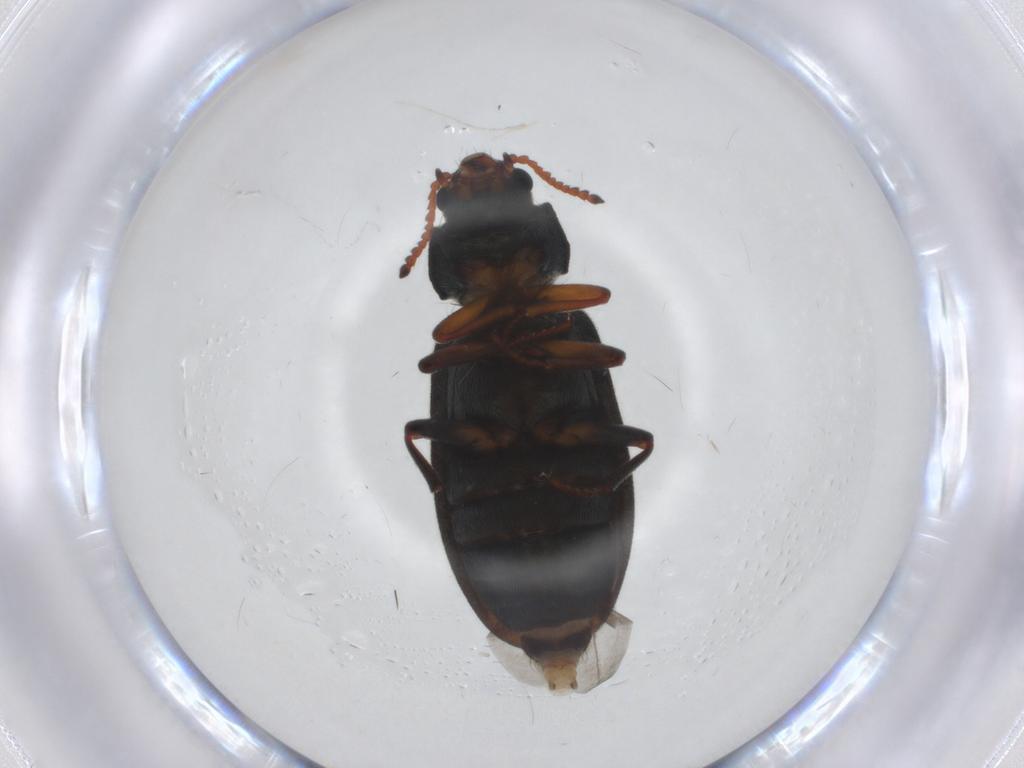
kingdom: Animalia
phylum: Arthropoda
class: Insecta
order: Coleoptera
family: Melyridae
